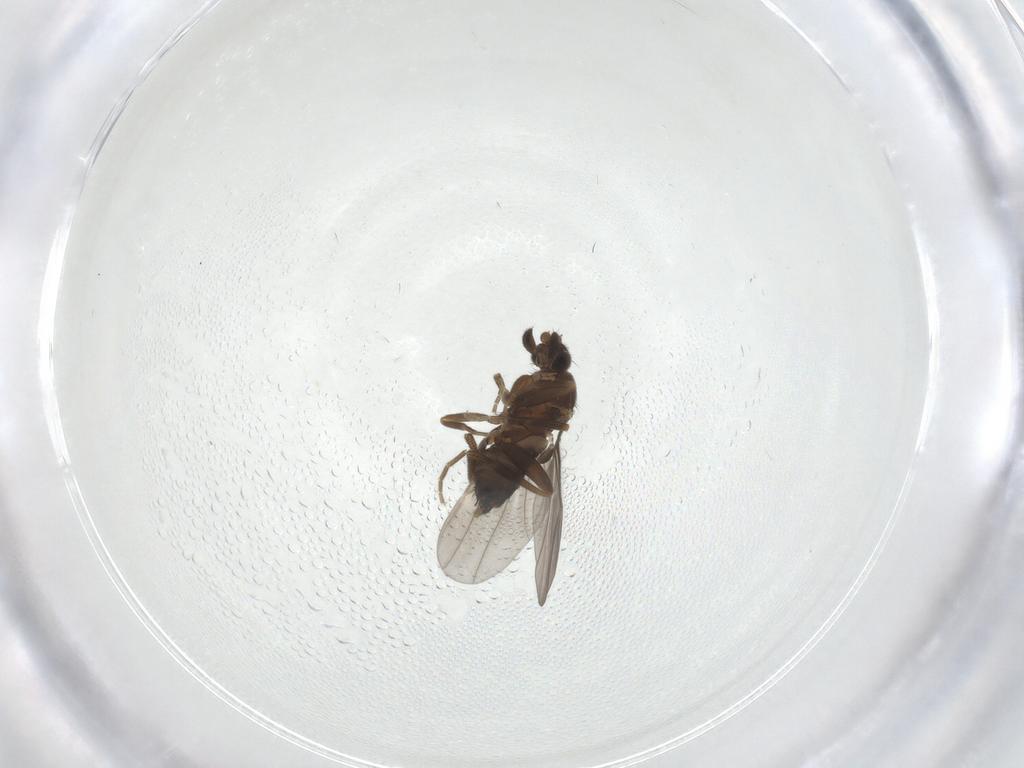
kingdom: Animalia
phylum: Arthropoda
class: Insecta
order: Diptera
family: Phoridae
